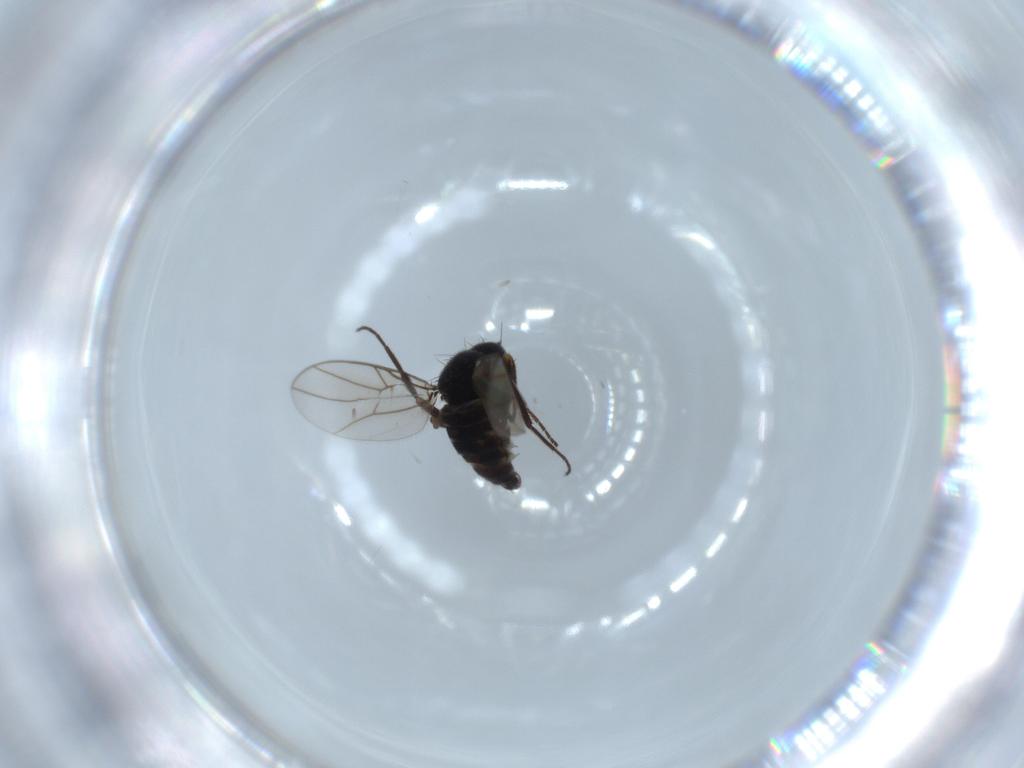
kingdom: Animalia
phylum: Arthropoda
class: Insecta
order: Diptera
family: Hybotidae
